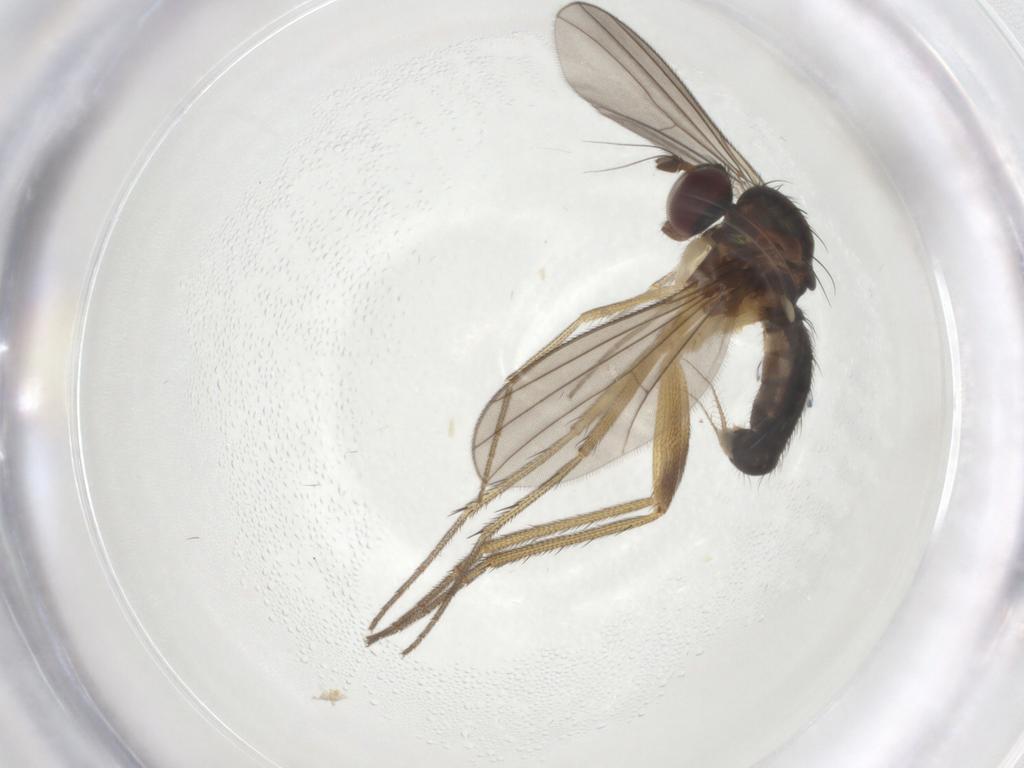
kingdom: Animalia
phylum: Arthropoda
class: Insecta
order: Diptera
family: Dolichopodidae
